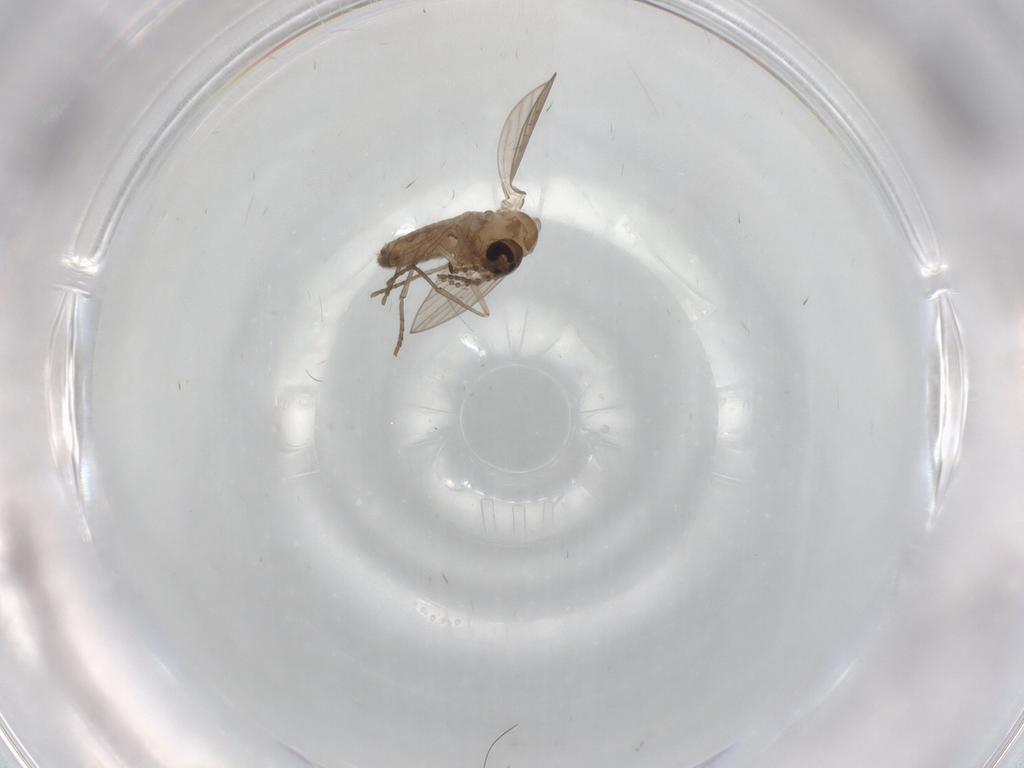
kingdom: Animalia
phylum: Arthropoda
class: Insecta
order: Diptera
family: Psychodidae
